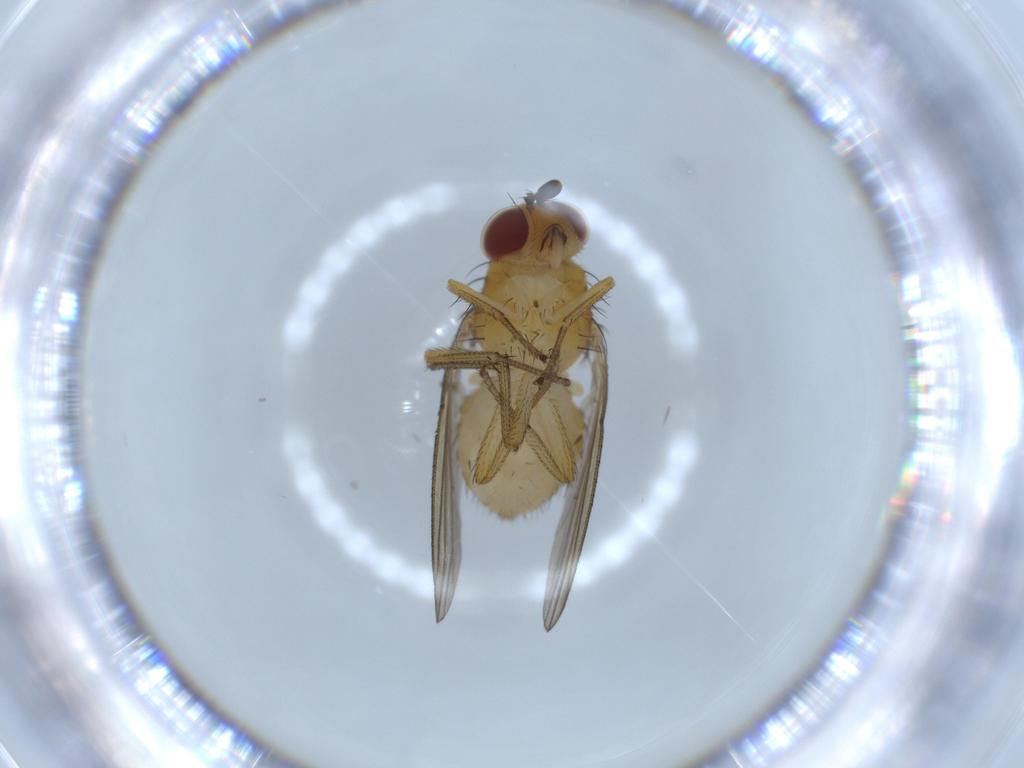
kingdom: Animalia
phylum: Arthropoda
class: Insecta
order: Diptera
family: Lauxaniidae
